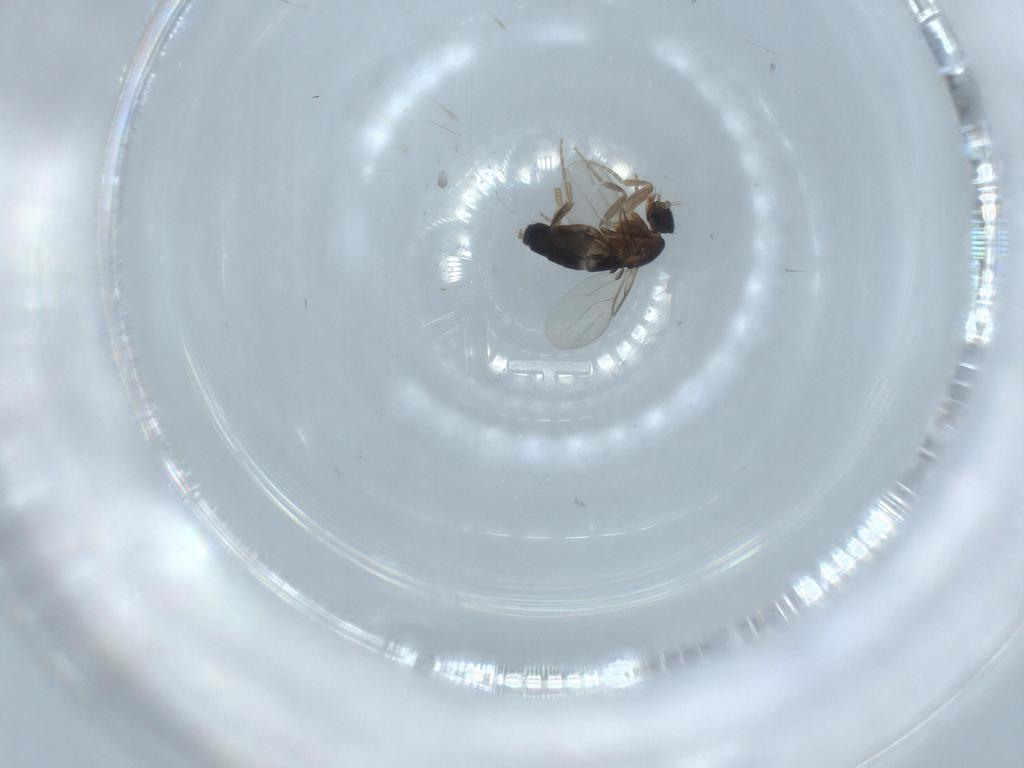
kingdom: Animalia
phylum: Arthropoda
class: Insecta
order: Diptera
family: Phoridae
